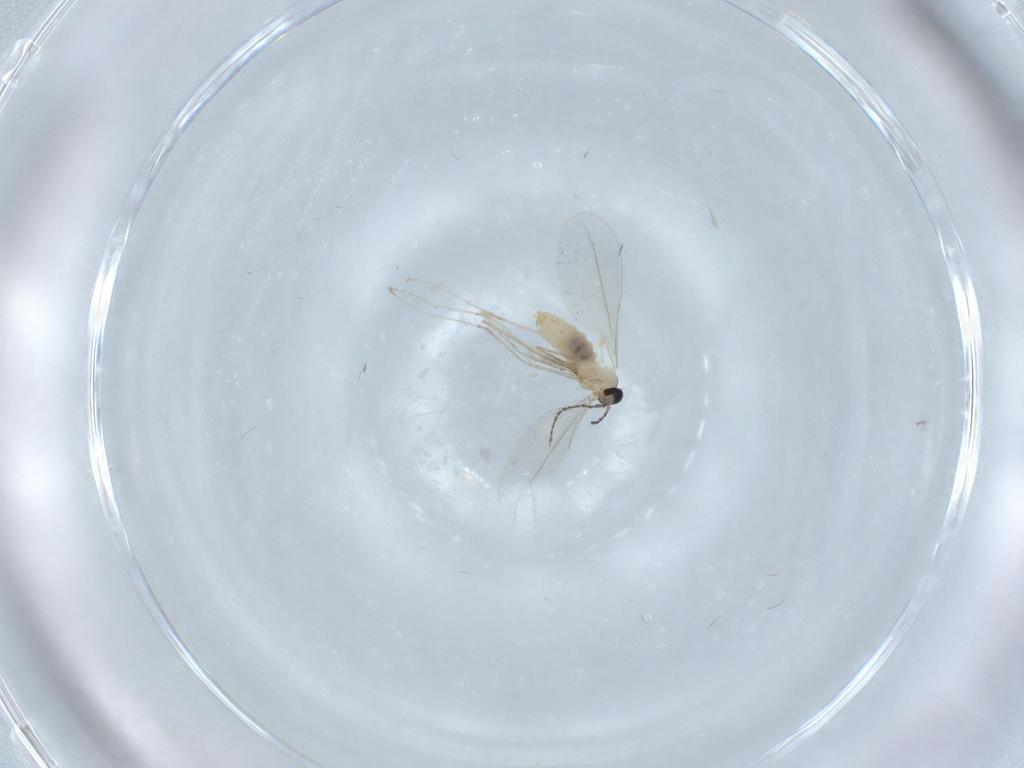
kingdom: Animalia
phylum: Arthropoda
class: Insecta
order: Diptera
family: Cecidomyiidae
